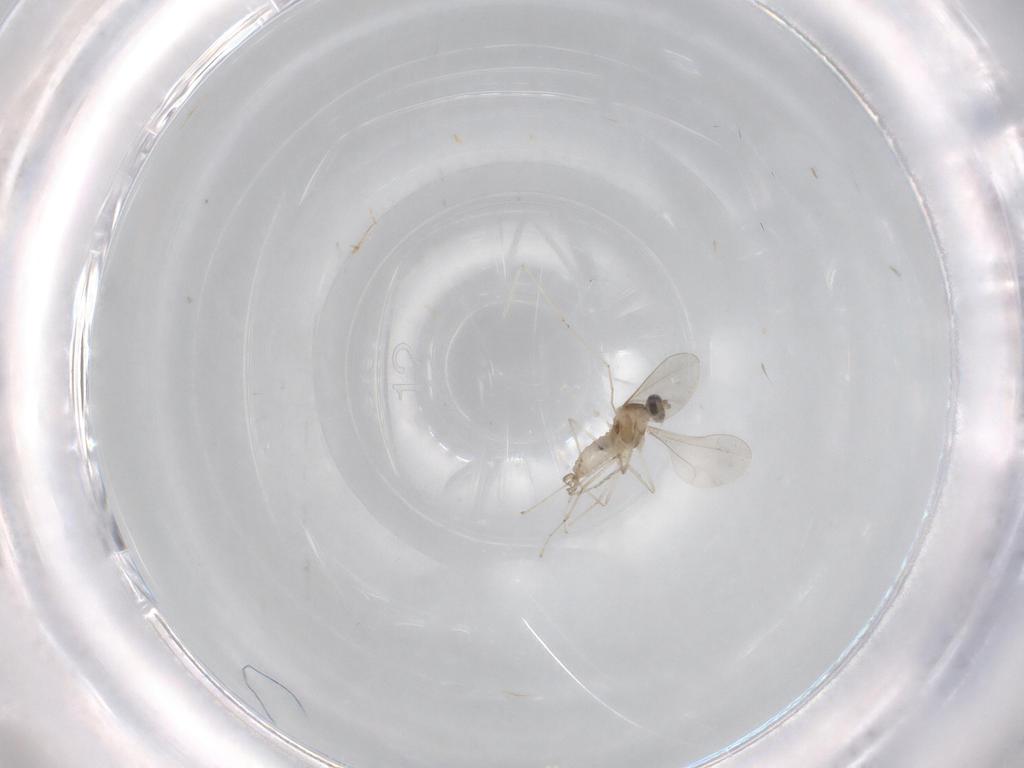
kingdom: Animalia
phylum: Arthropoda
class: Insecta
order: Diptera
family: Cecidomyiidae
